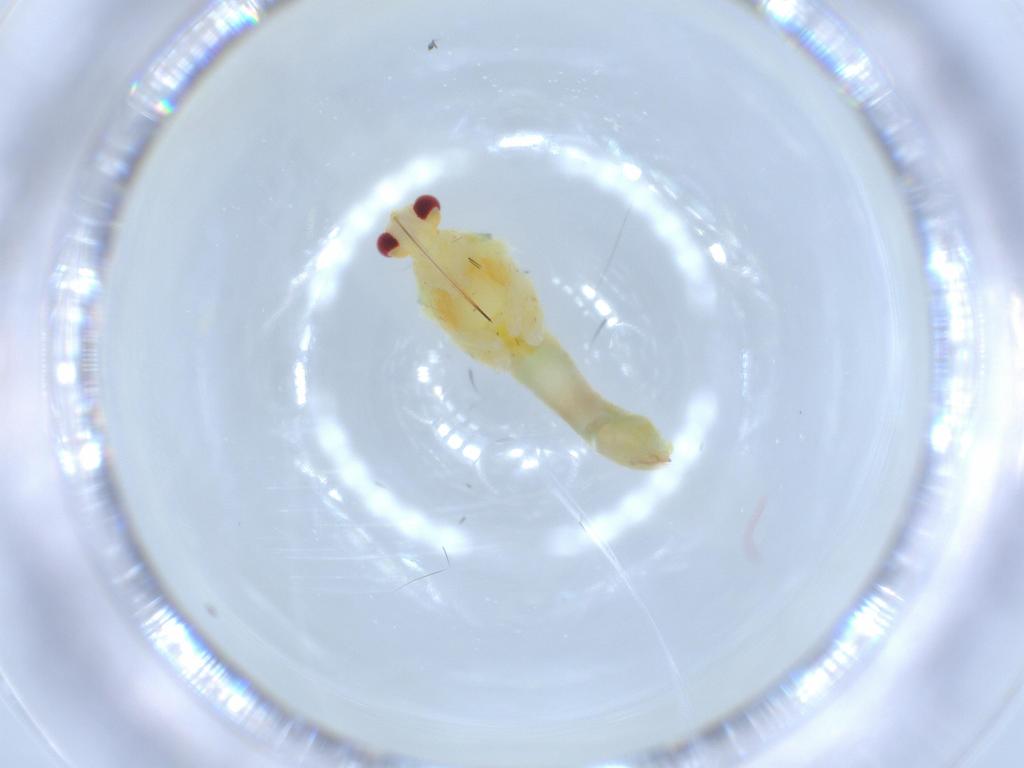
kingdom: Animalia
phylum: Arthropoda
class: Insecta
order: Hemiptera
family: Miridae
